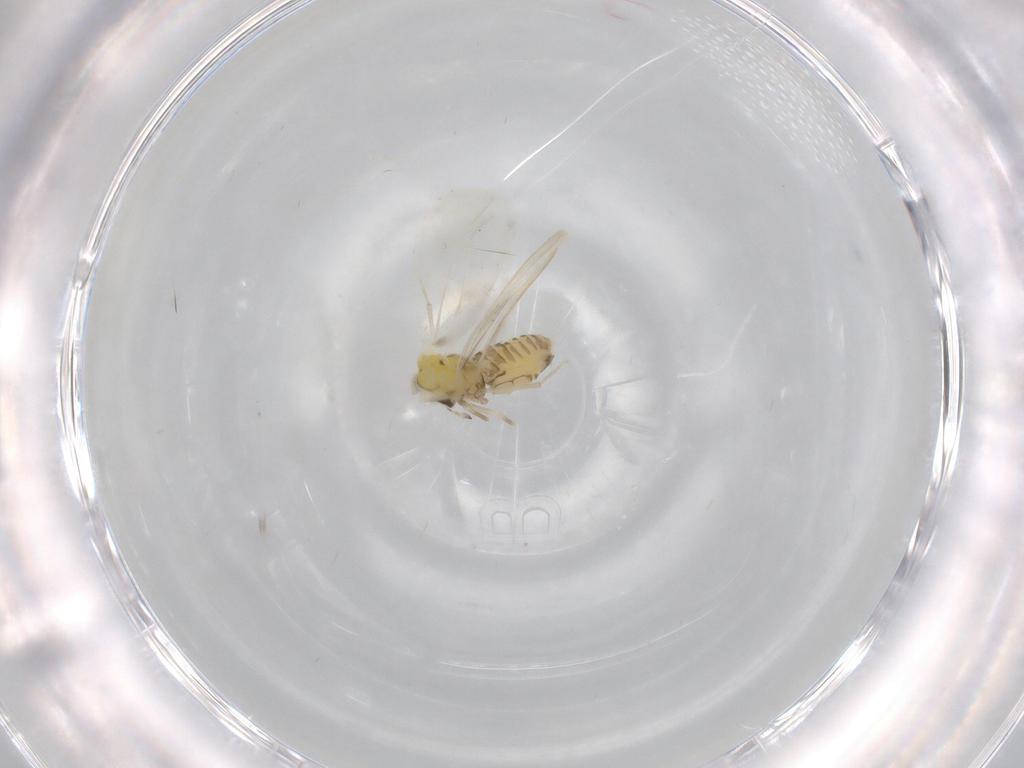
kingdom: Animalia
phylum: Arthropoda
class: Insecta
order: Hemiptera
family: Aleyrodidae
